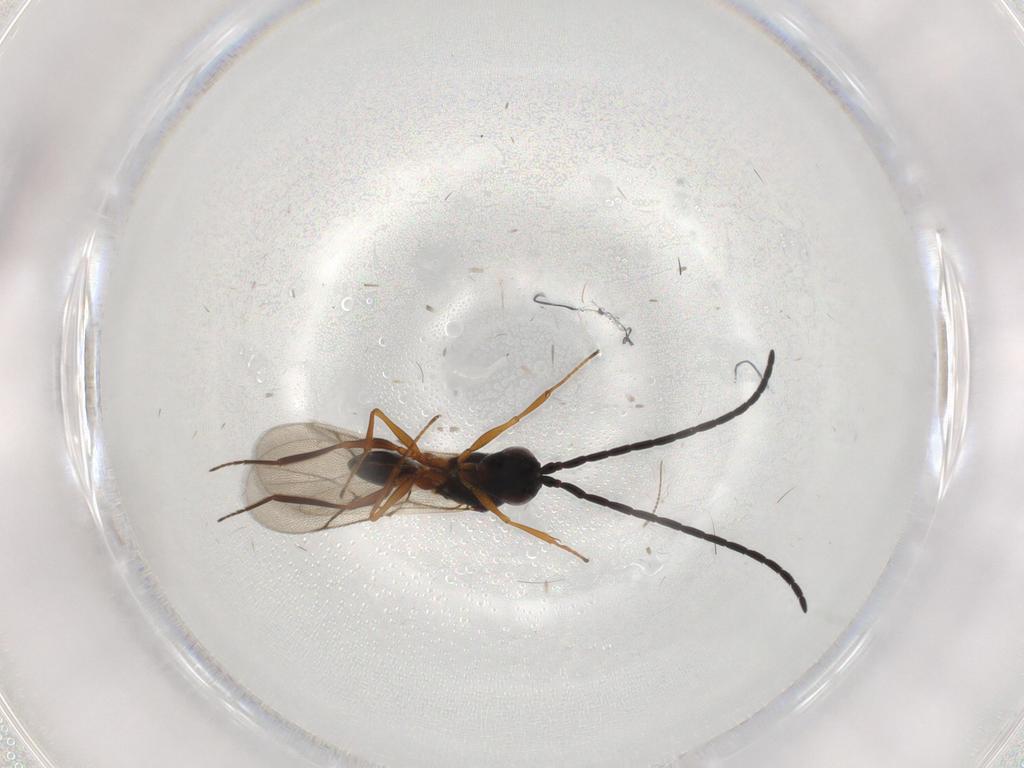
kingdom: Animalia
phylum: Arthropoda
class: Insecta
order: Hymenoptera
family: Figitidae
